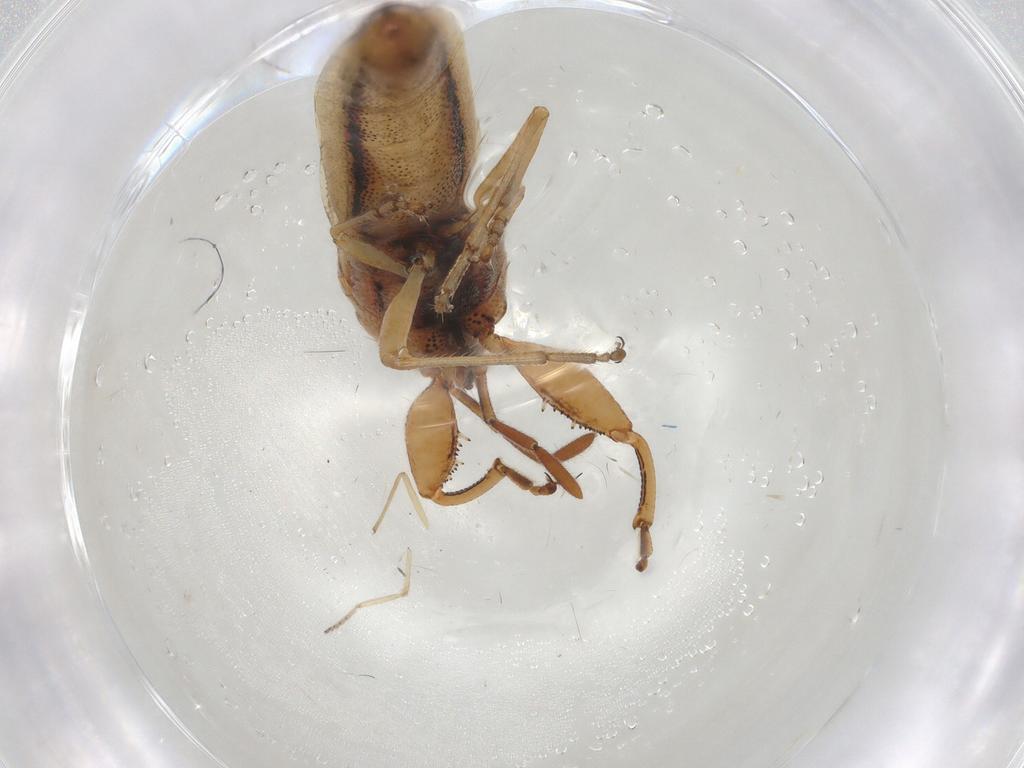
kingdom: Animalia
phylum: Arthropoda
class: Insecta
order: Hemiptera
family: Pachygronthidae
